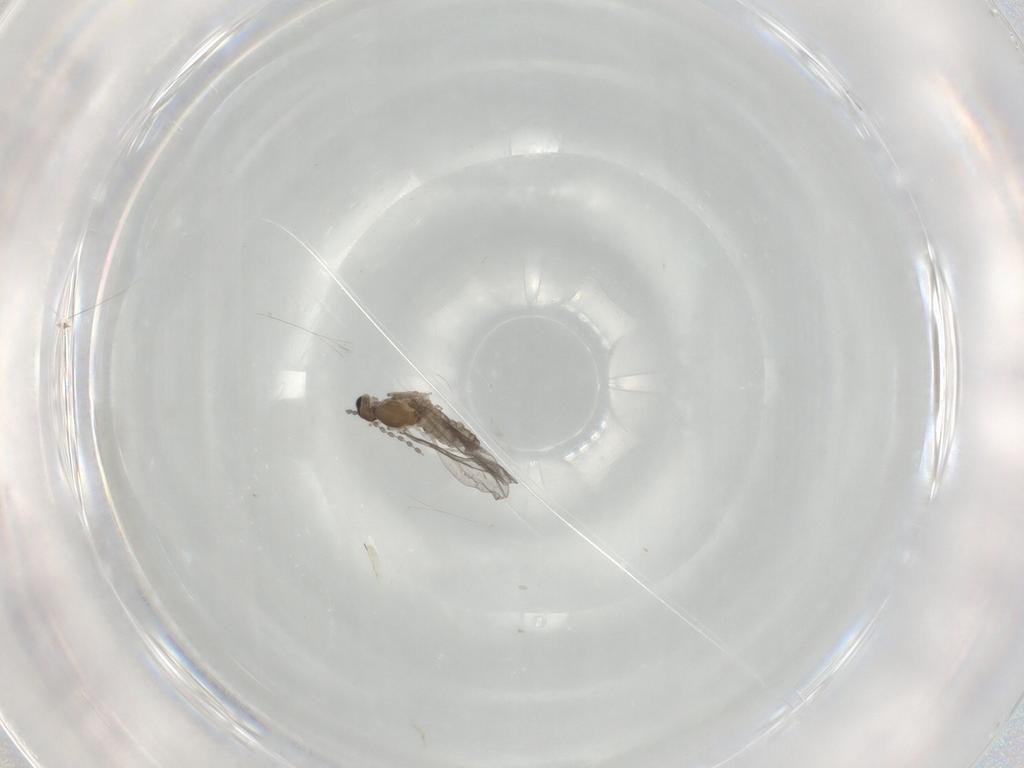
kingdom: Animalia
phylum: Arthropoda
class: Insecta
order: Diptera
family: Cecidomyiidae
